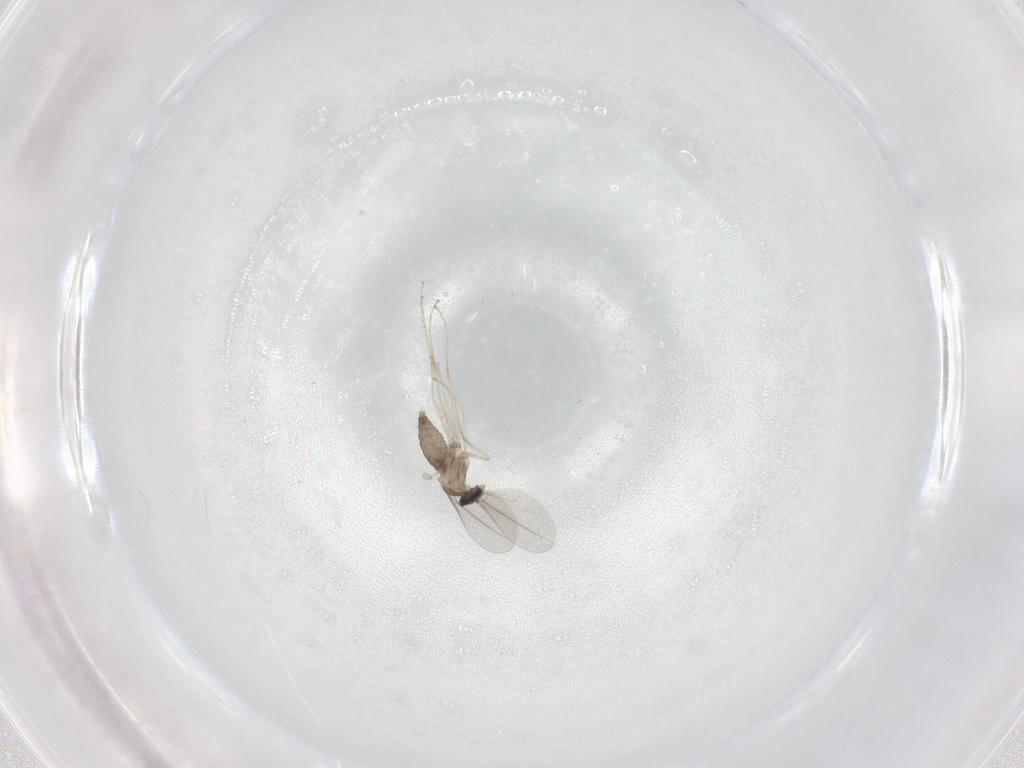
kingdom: Animalia
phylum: Arthropoda
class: Insecta
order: Diptera
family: Cecidomyiidae
